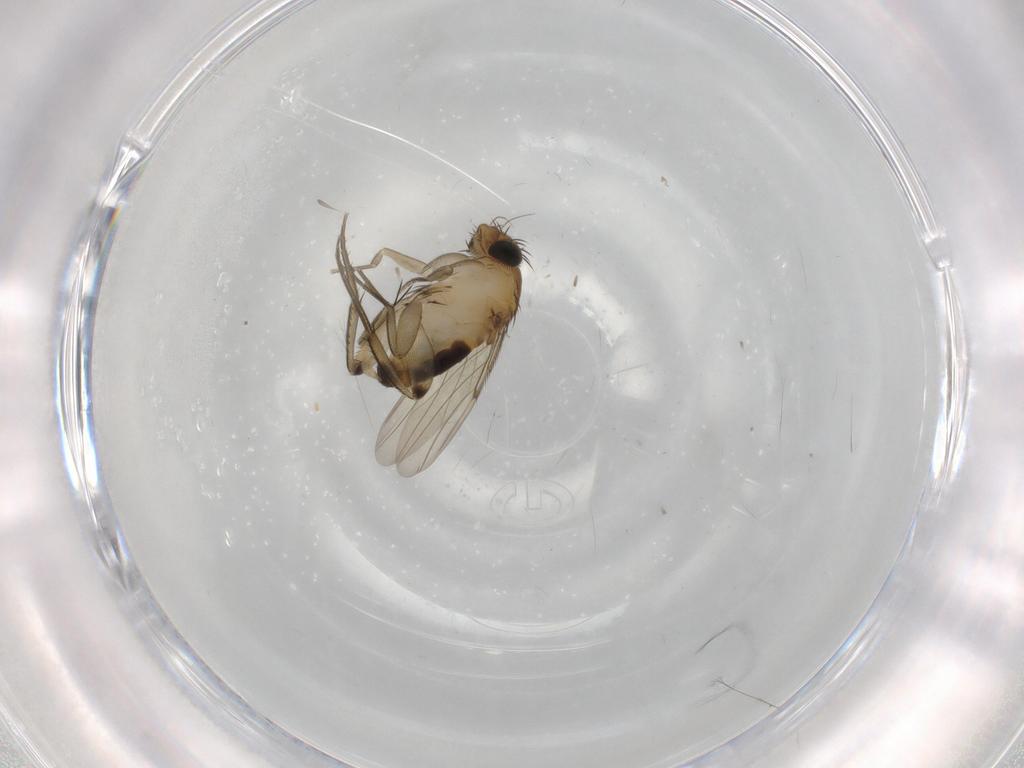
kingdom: Animalia
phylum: Arthropoda
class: Insecta
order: Diptera
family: Phoridae
